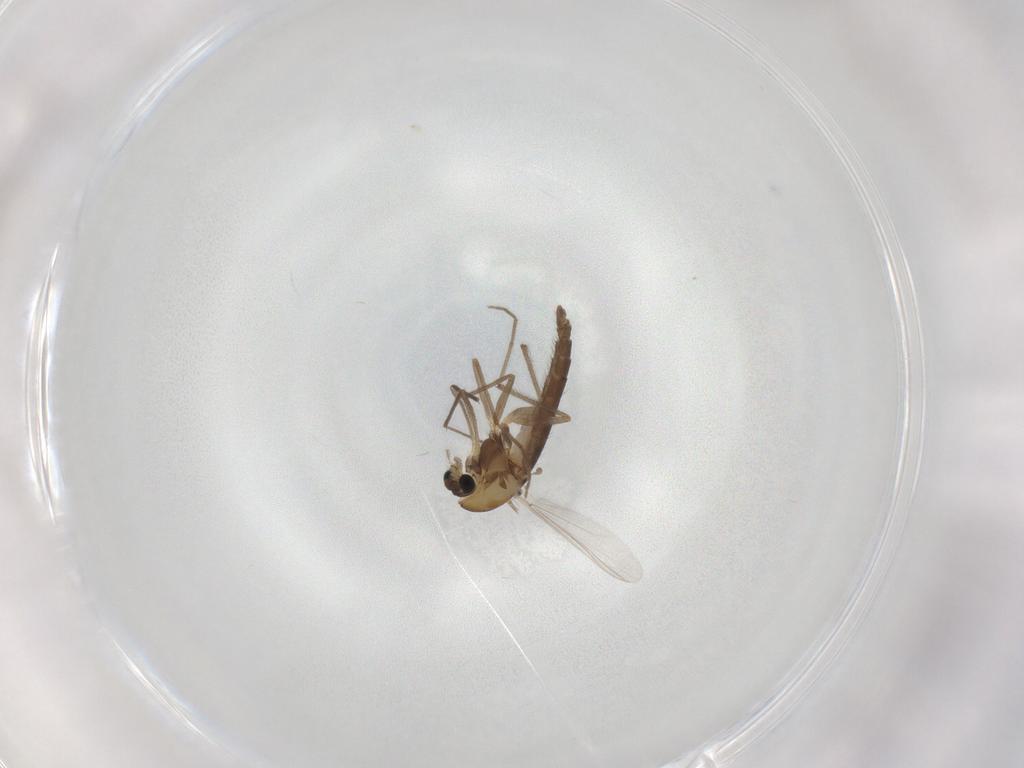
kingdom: Animalia
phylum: Arthropoda
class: Insecta
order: Diptera
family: Chironomidae
